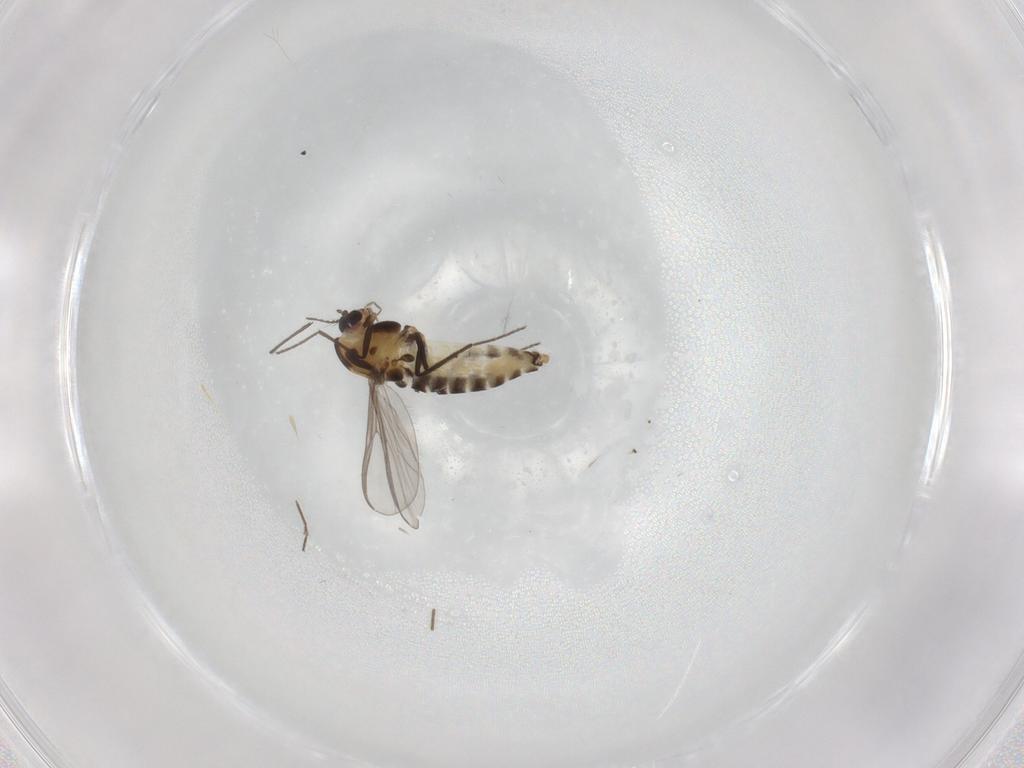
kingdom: Animalia
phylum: Arthropoda
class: Insecta
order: Diptera
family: Chironomidae
